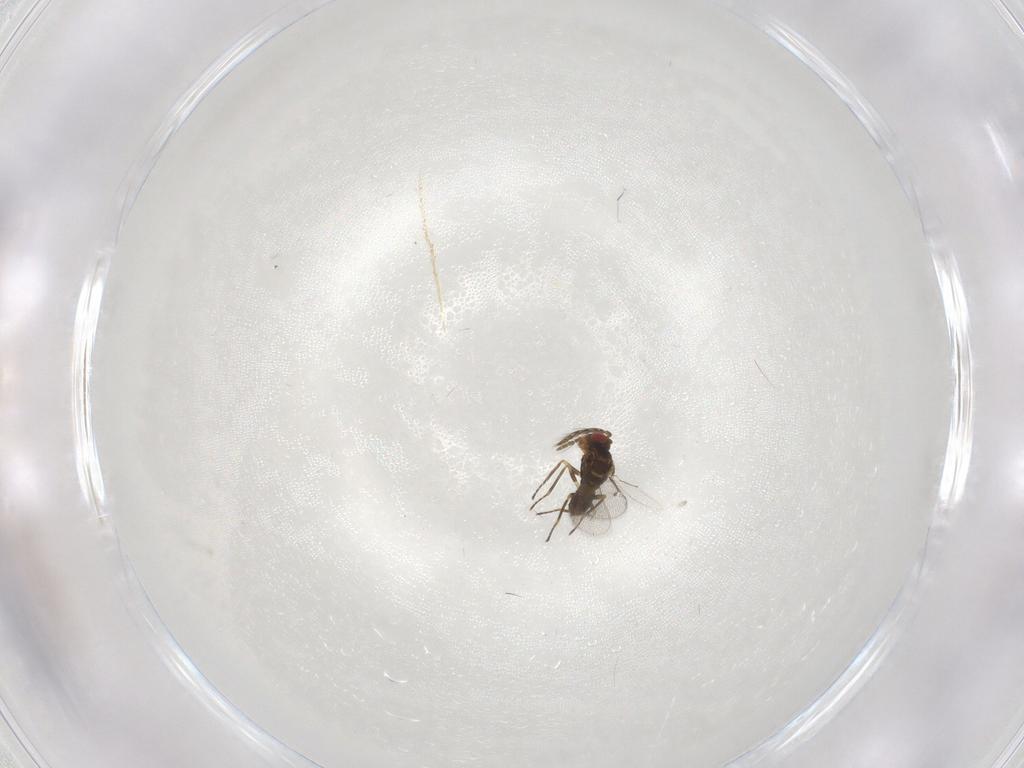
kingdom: Animalia
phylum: Arthropoda
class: Insecta
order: Hymenoptera
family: Eulophidae
